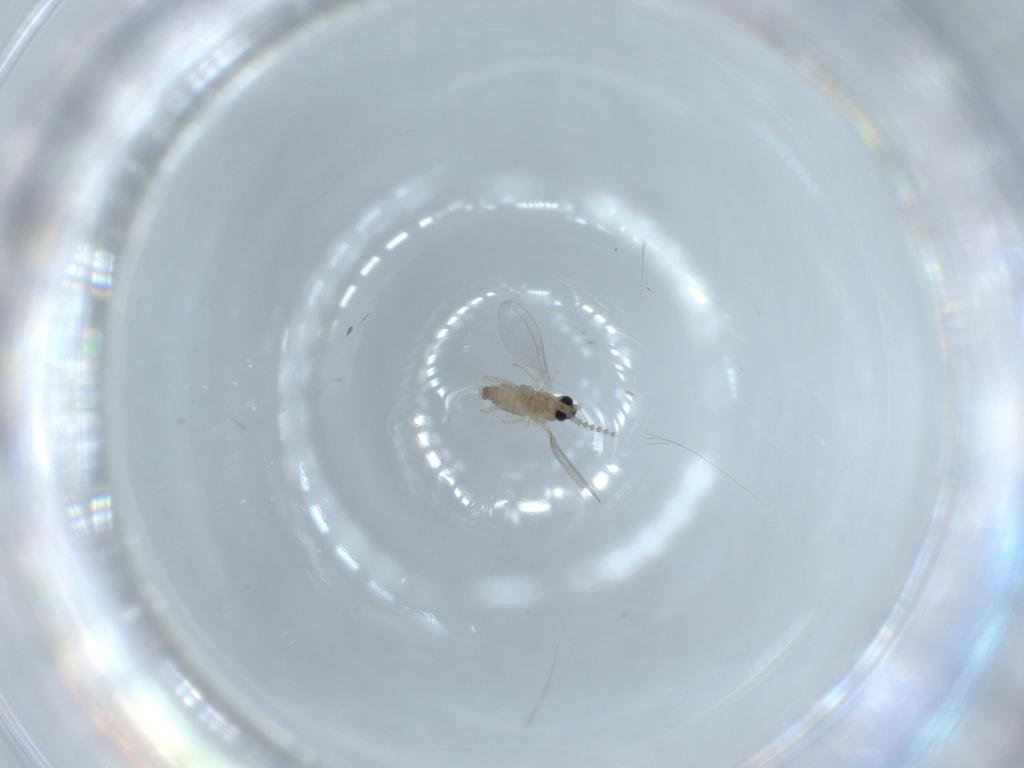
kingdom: Animalia
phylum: Arthropoda
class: Insecta
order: Diptera
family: Cecidomyiidae
